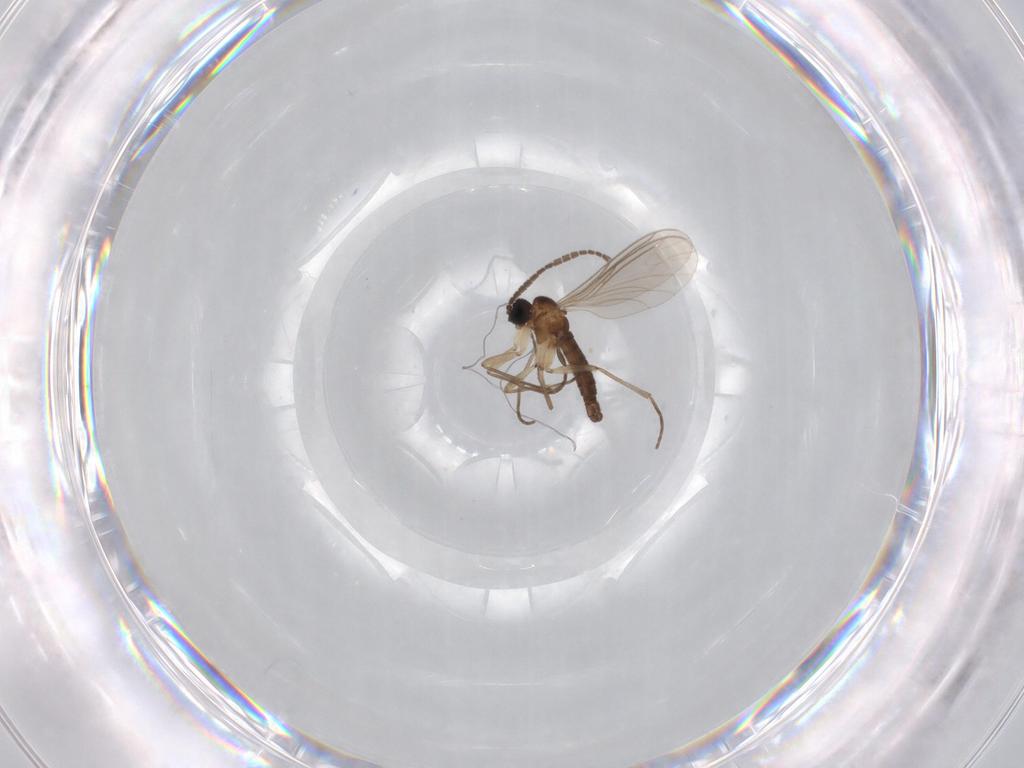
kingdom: Animalia
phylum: Arthropoda
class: Insecta
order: Diptera
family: Sciaridae
